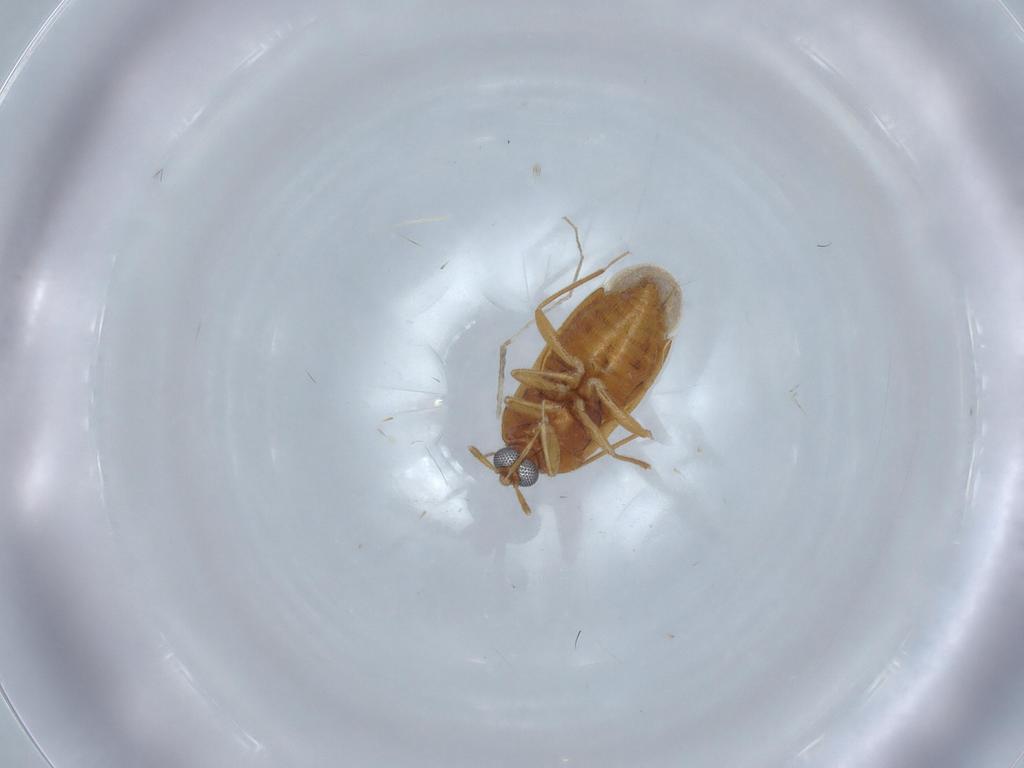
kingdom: Animalia
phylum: Arthropoda
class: Insecta
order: Hemiptera
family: Anthocoridae
